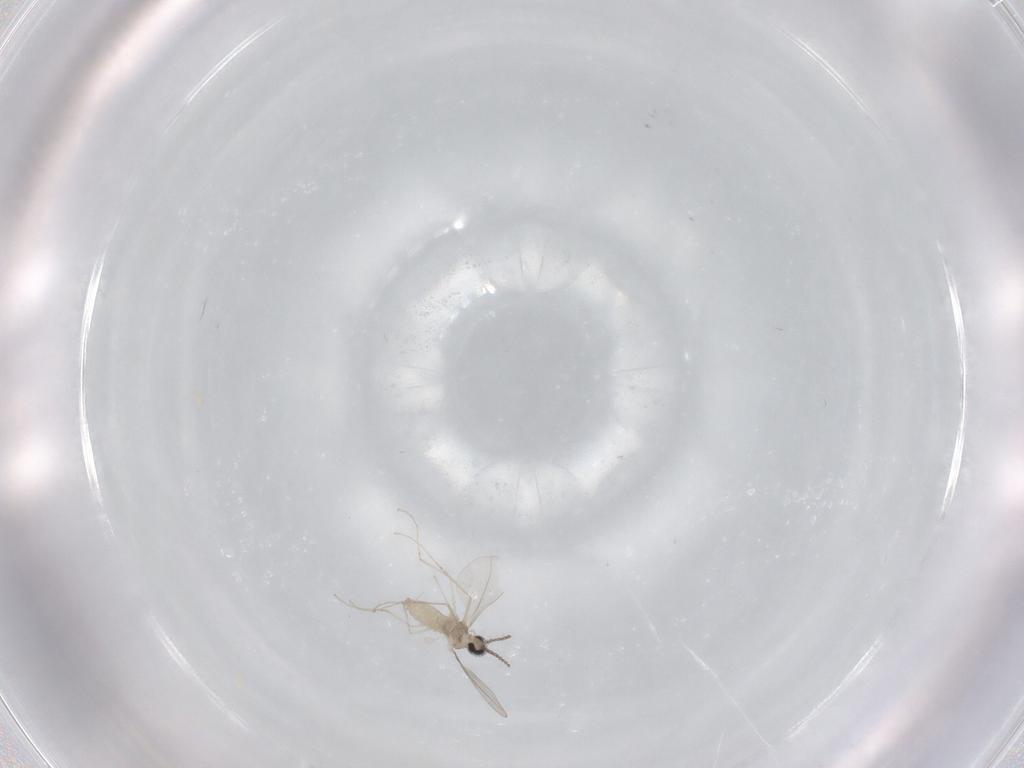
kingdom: Animalia
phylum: Arthropoda
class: Insecta
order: Diptera
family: Cecidomyiidae
